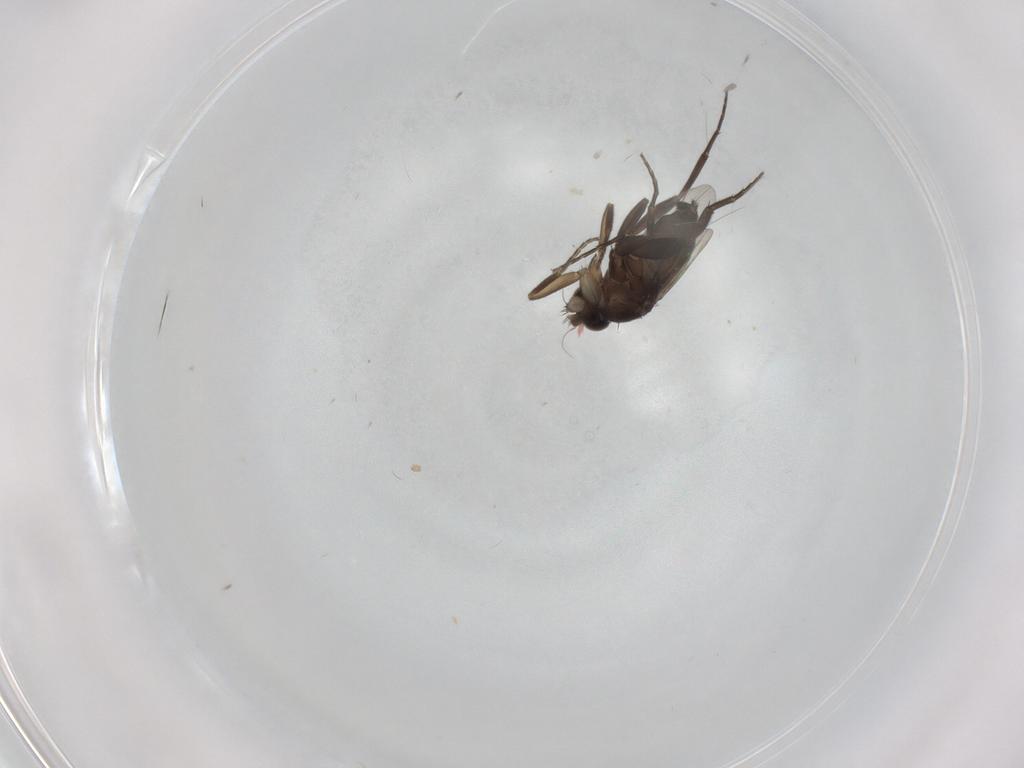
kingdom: Animalia
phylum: Arthropoda
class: Insecta
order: Diptera
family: Phoridae
